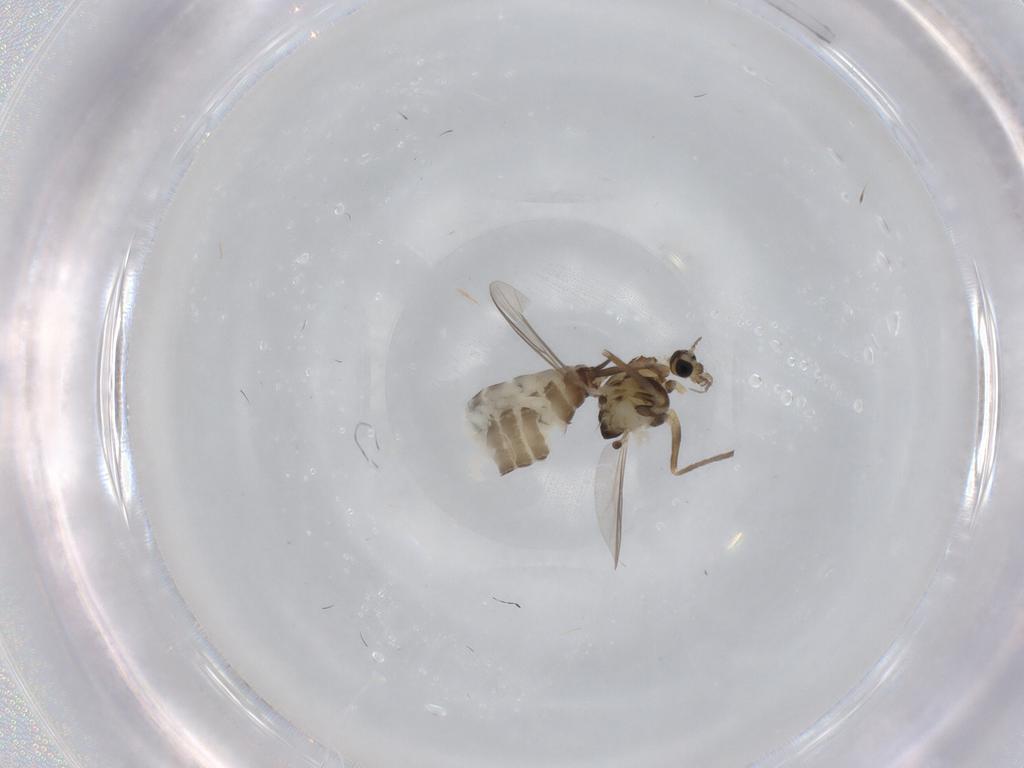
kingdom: Animalia
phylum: Arthropoda
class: Insecta
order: Diptera
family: Chironomidae
